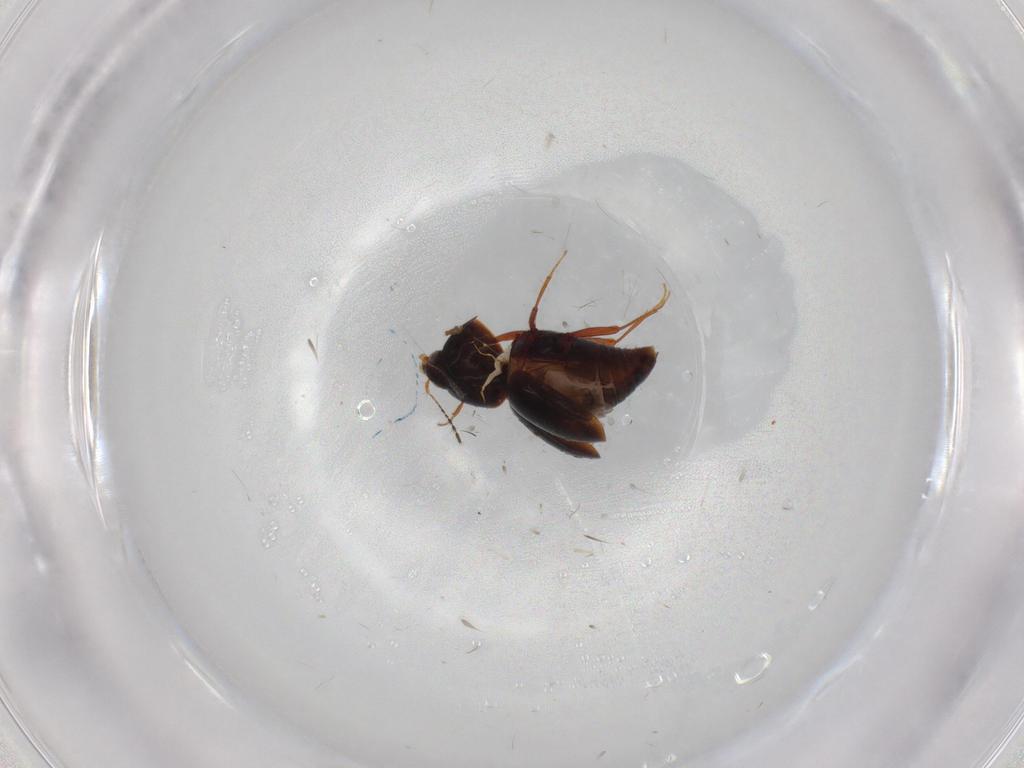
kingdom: Animalia
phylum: Arthropoda
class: Insecta
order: Coleoptera
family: Staphylinidae
